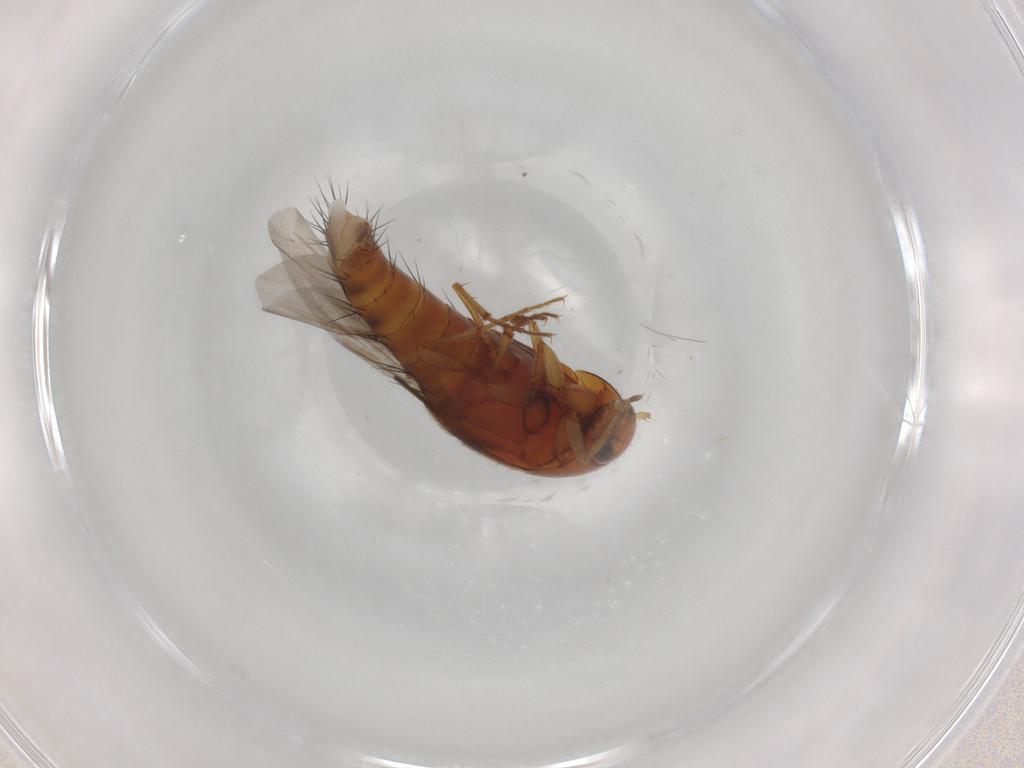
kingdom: Animalia
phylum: Arthropoda
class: Insecta
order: Coleoptera
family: Staphylinidae
